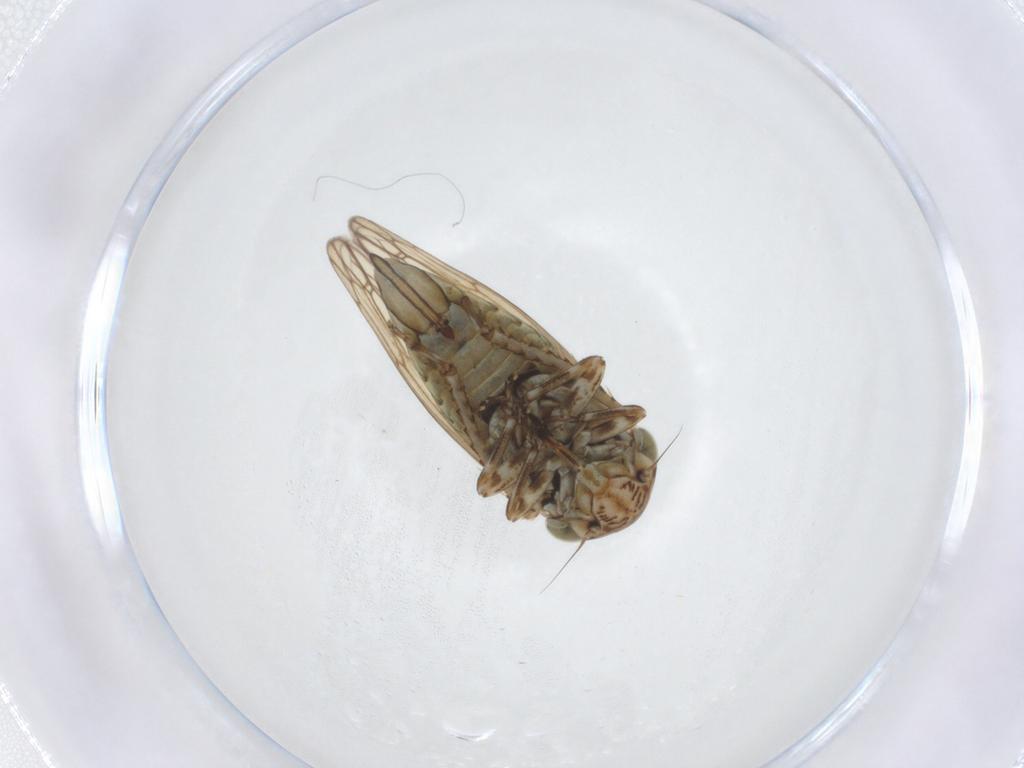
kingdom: Animalia
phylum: Arthropoda
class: Insecta
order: Hemiptera
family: Cicadellidae
